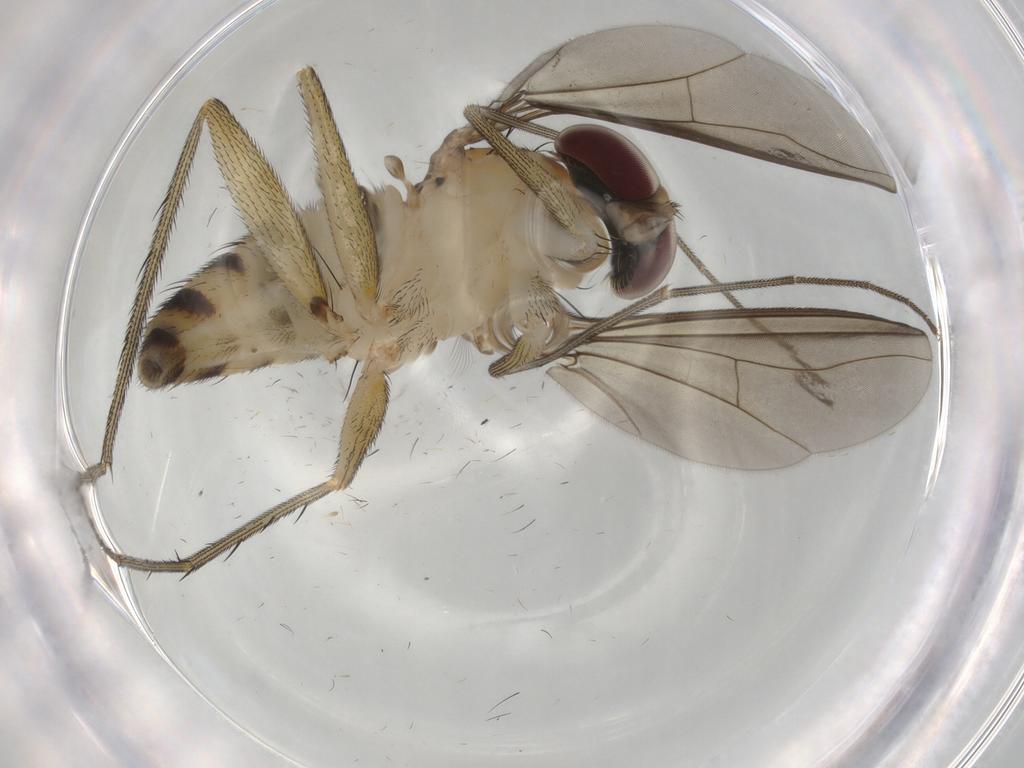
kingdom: Animalia
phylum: Arthropoda
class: Insecta
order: Diptera
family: Dolichopodidae
